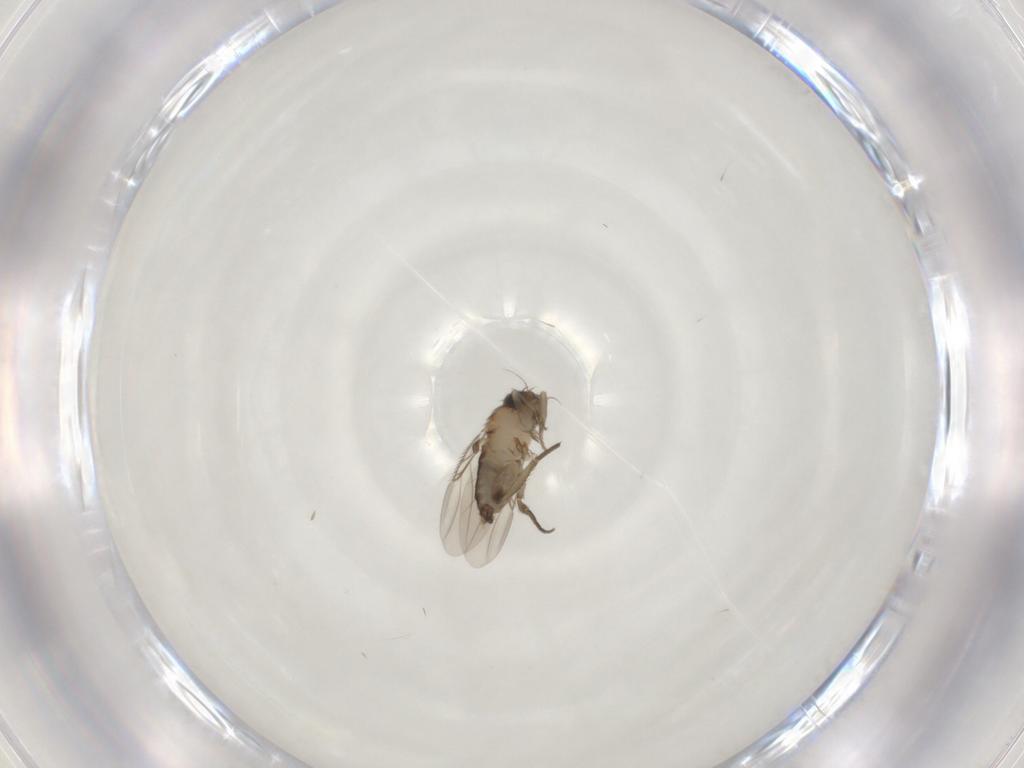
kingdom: Animalia
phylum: Arthropoda
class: Insecta
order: Diptera
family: Phoridae
